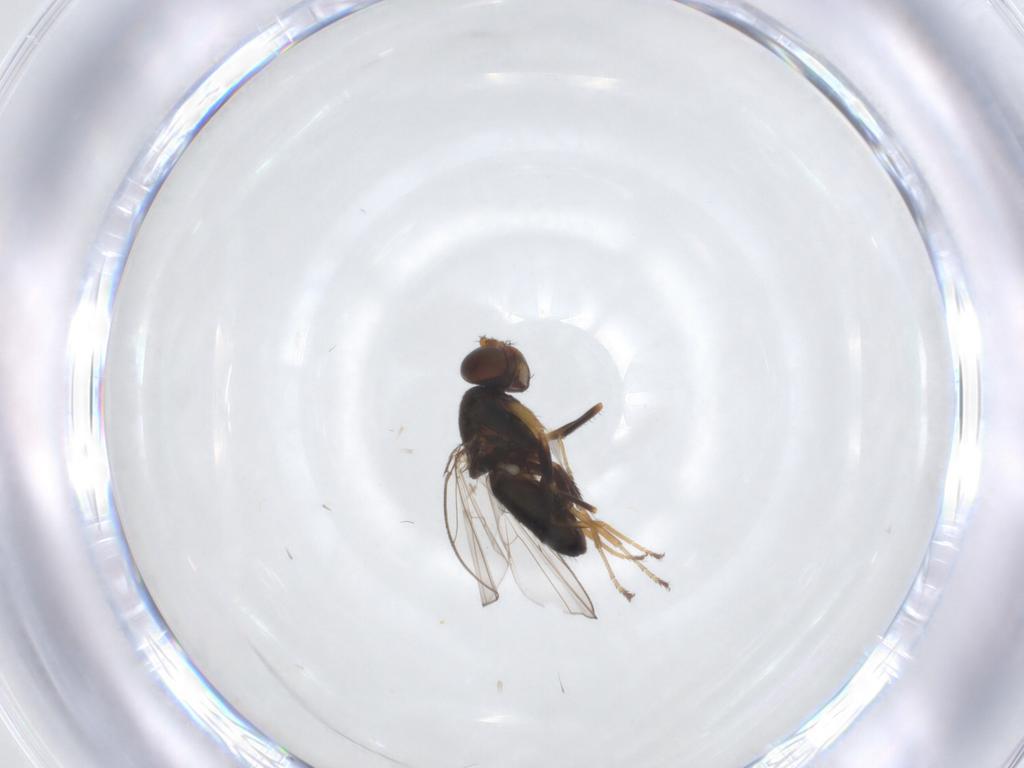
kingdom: Animalia
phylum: Arthropoda
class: Insecta
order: Diptera
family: Ephydridae
